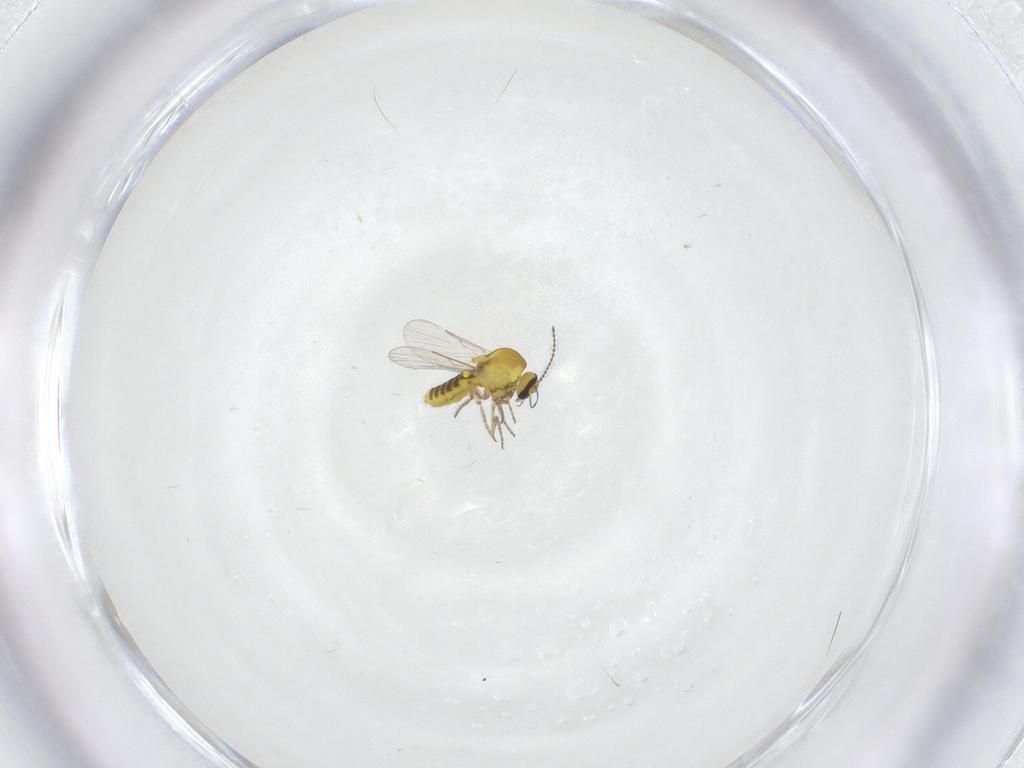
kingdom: Animalia
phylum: Arthropoda
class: Insecta
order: Diptera
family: Ceratopogonidae
